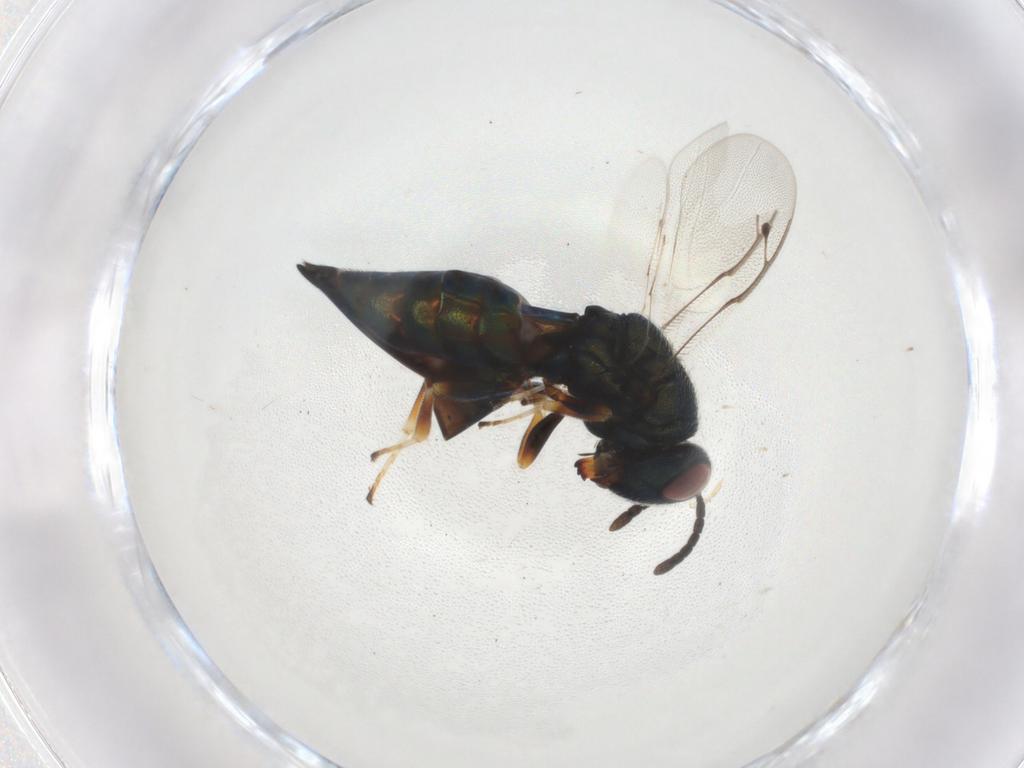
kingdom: Animalia
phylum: Arthropoda
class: Insecta
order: Hymenoptera
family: Pteromalidae
